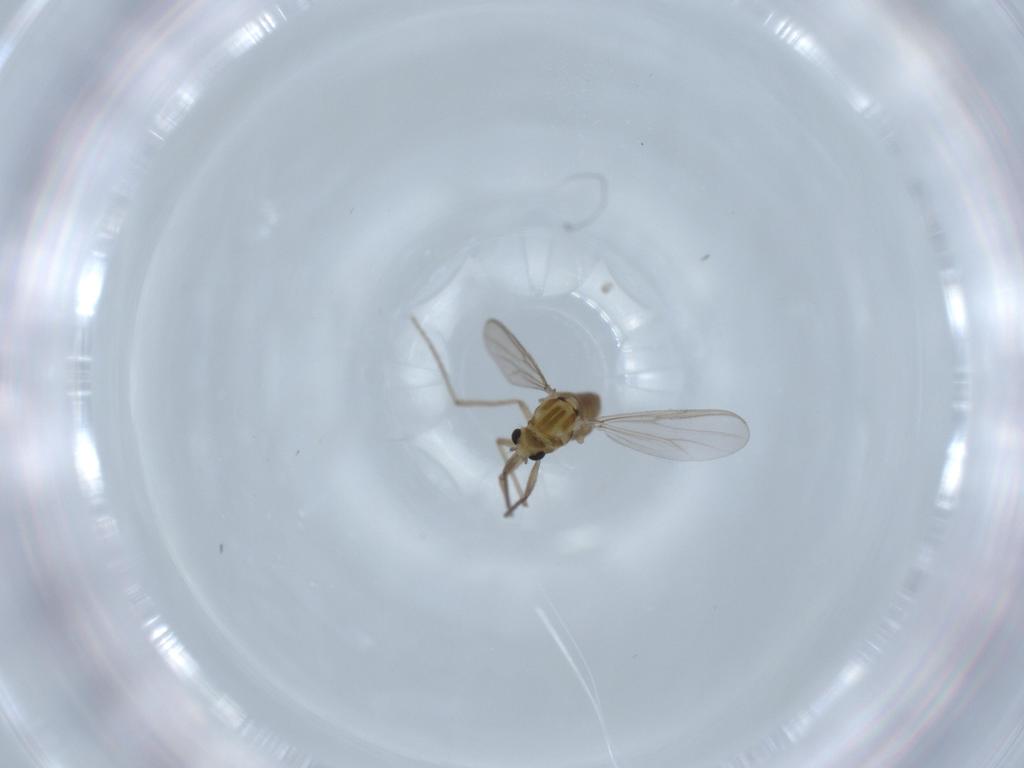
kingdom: Animalia
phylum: Arthropoda
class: Insecta
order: Diptera
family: Chironomidae
